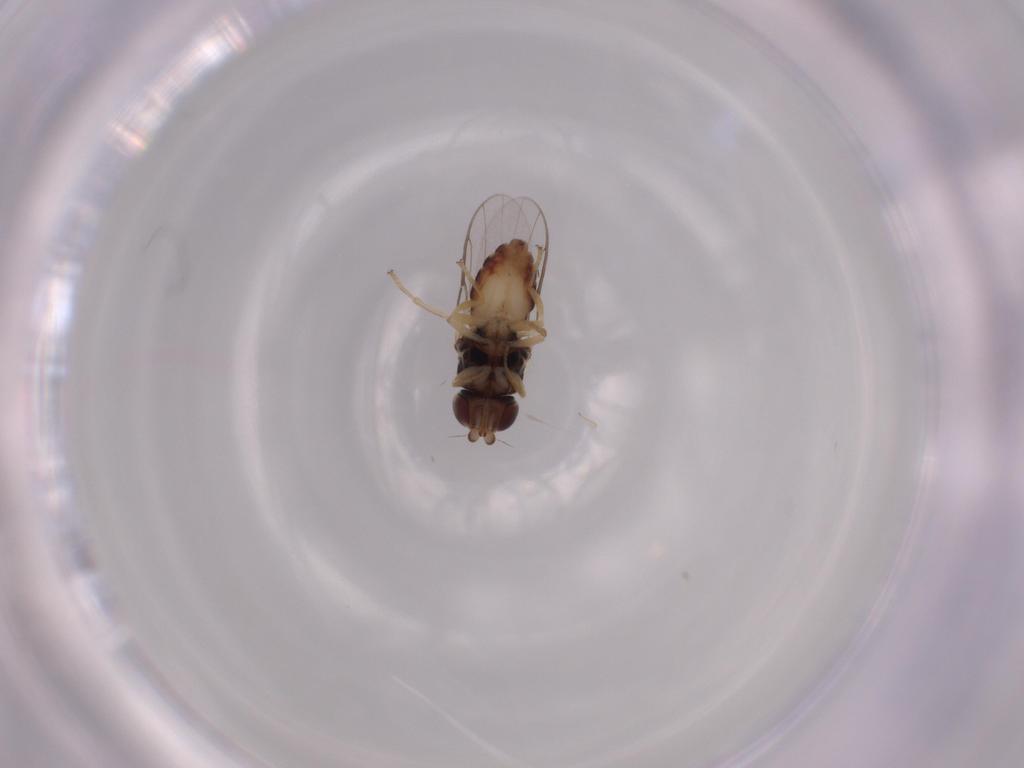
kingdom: Animalia
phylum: Arthropoda
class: Insecta
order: Diptera
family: Chloropidae
